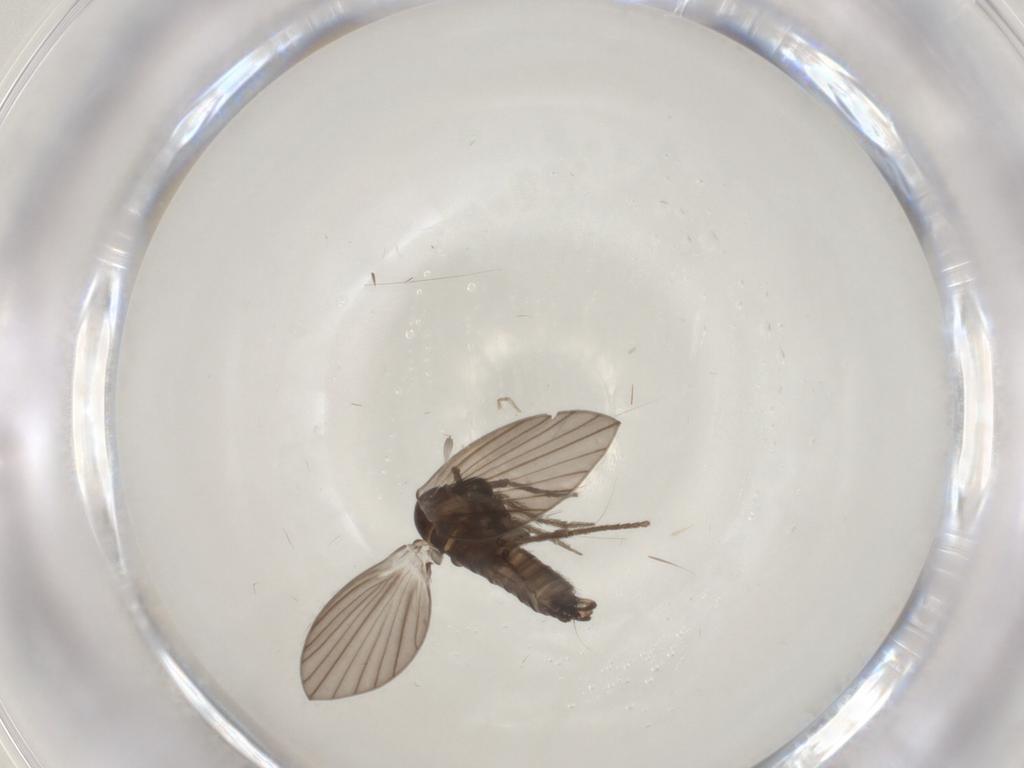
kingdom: Animalia
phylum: Arthropoda
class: Insecta
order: Diptera
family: Psychodidae
